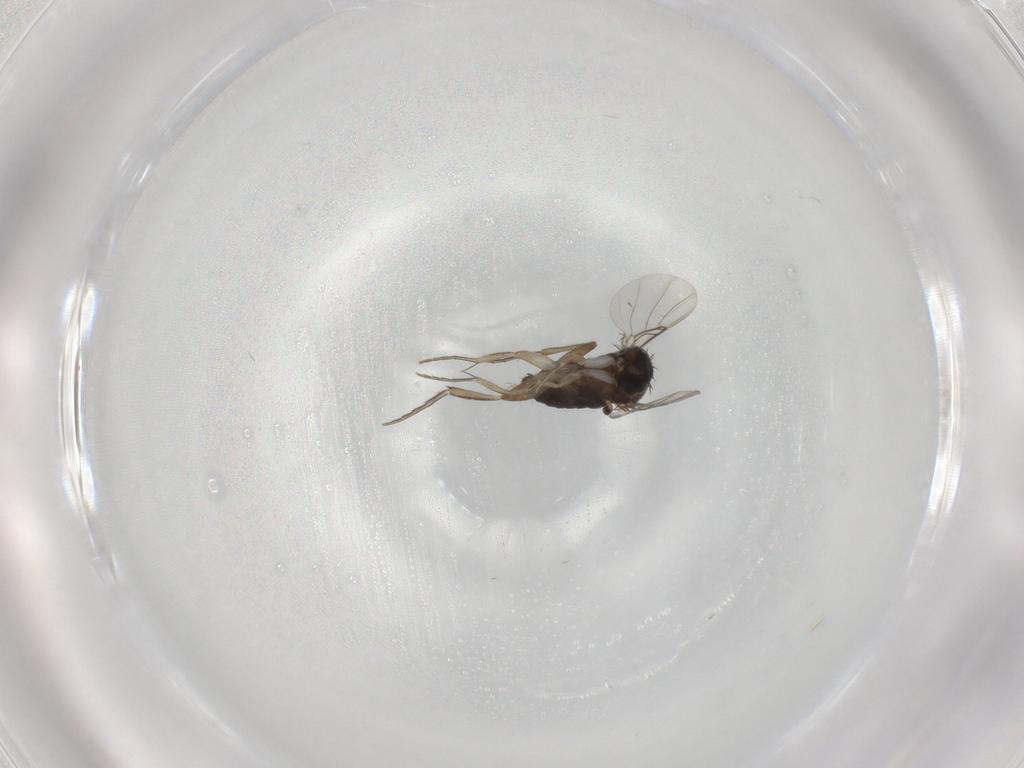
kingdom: Animalia
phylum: Arthropoda
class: Insecta
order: Diptera
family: Phoridae
